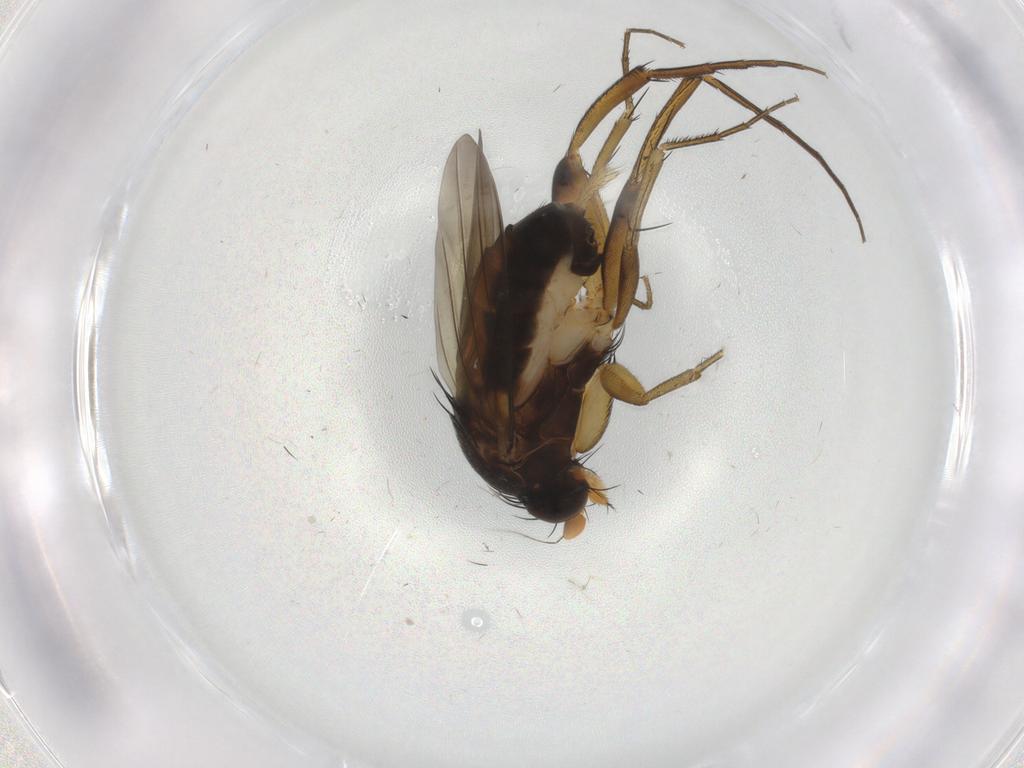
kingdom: Animalia
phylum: Arthropoda
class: Insecta
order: Diptera
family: Phoridae
